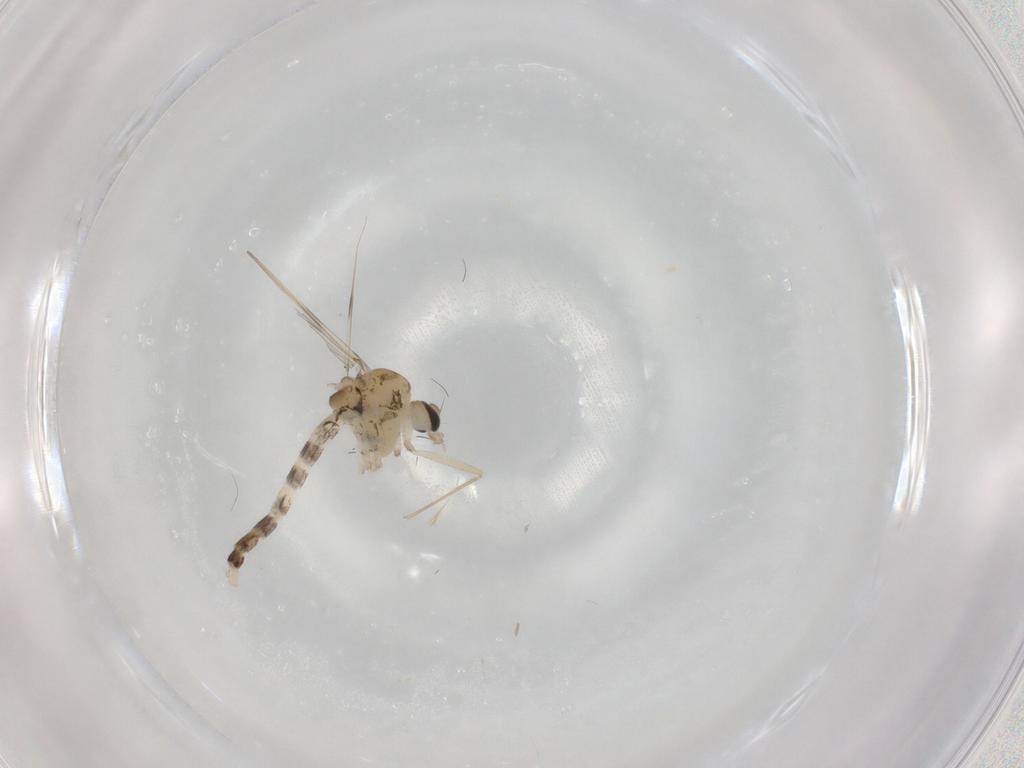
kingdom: Animalia
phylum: Arthropoda
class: Insecta
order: Diptera
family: Chironomidae
